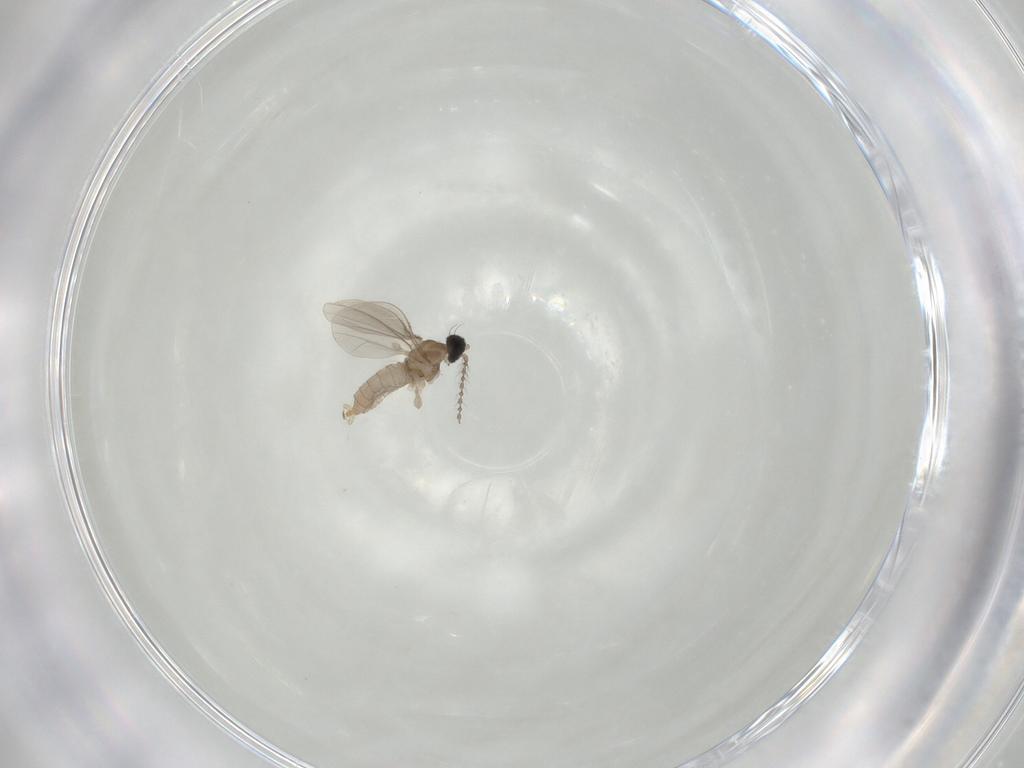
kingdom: Animalia
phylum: Arthropoda
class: Insecta
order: Diptera
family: Cecidomyiidae
